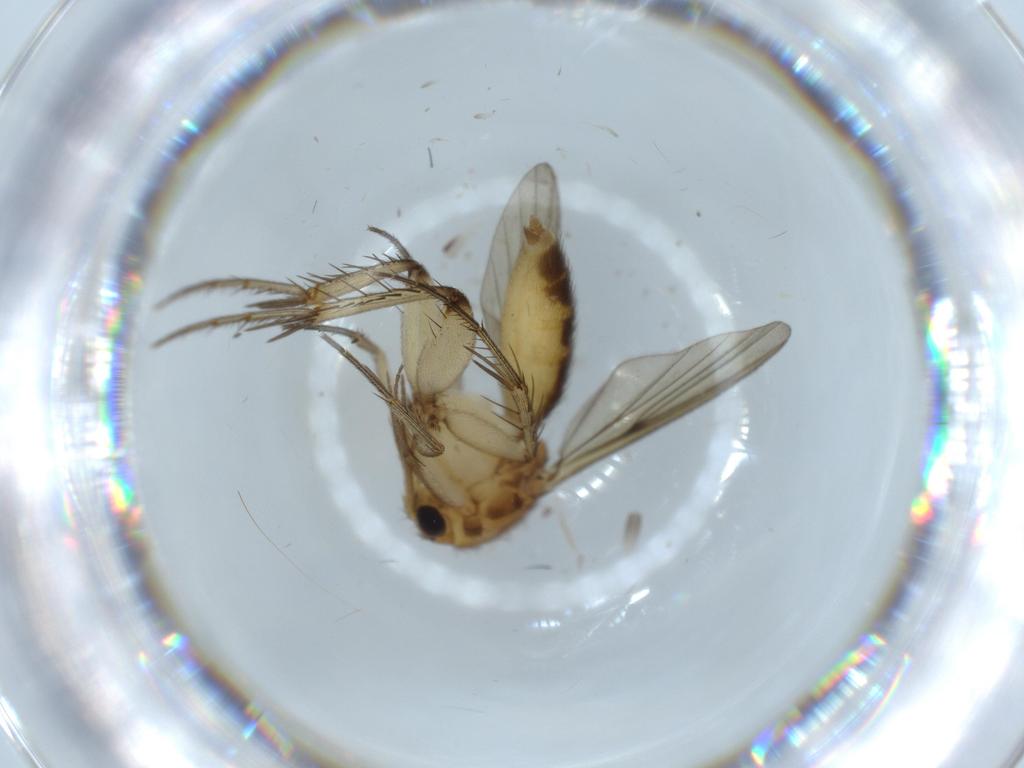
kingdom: Animalia
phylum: Arthropoda
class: Insecta
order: Diptera
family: Mycetophilidae
